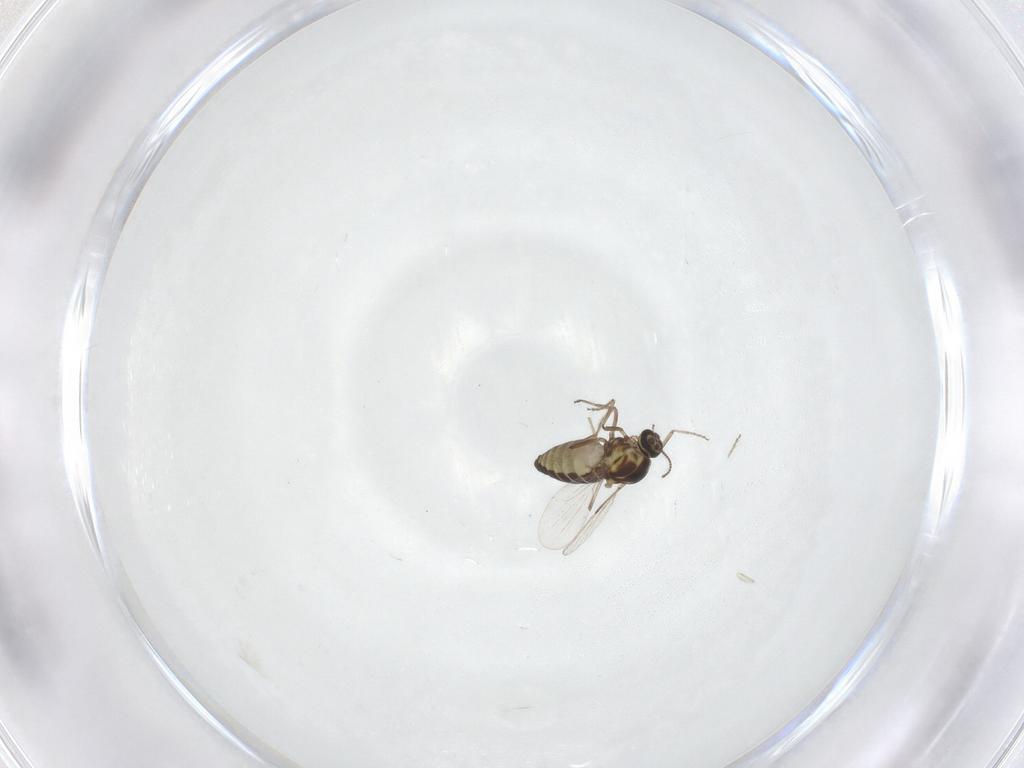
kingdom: Animalia
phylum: Arthropoda
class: Insecta
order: Diptera
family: Ceratopogonidae
